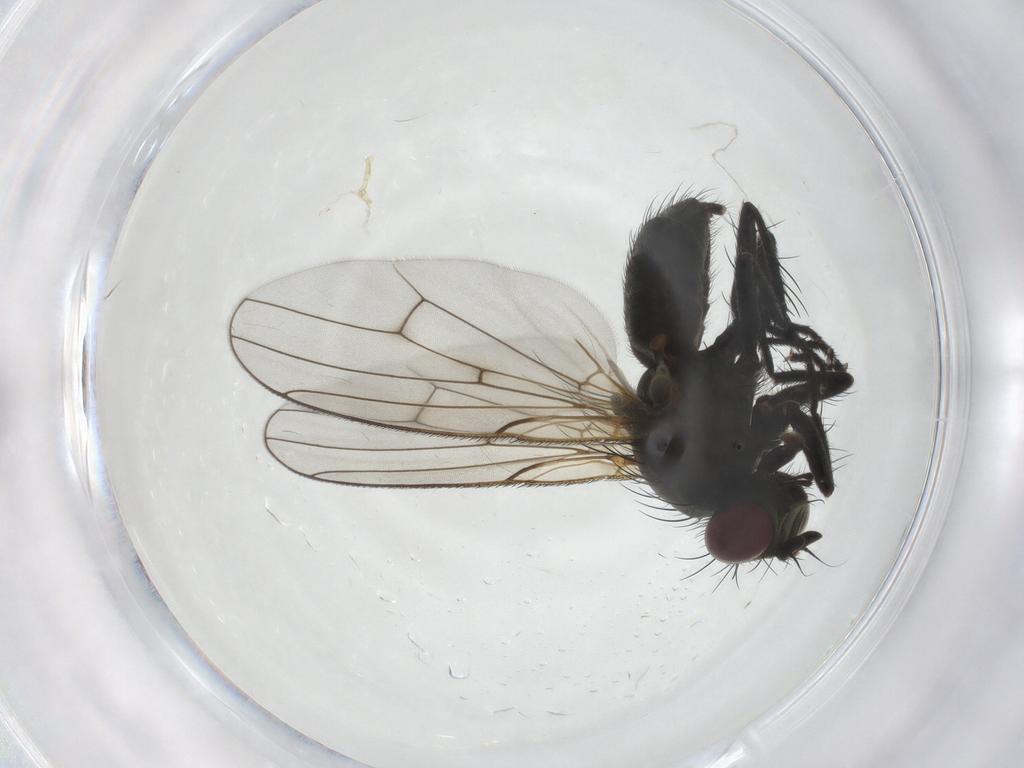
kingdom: Animalia
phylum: Arthropoda
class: Insecta
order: Diptera
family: Muscidae
